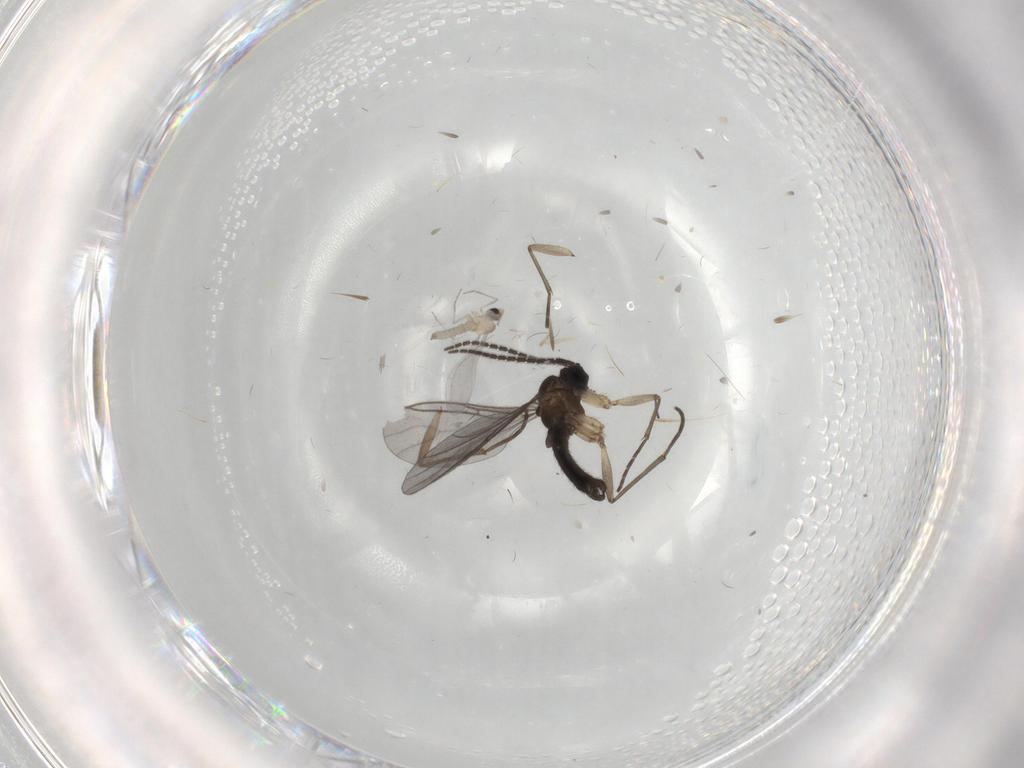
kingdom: Animalia
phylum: Arthropoda
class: Insecta
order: Diptera
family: Sciaridae
